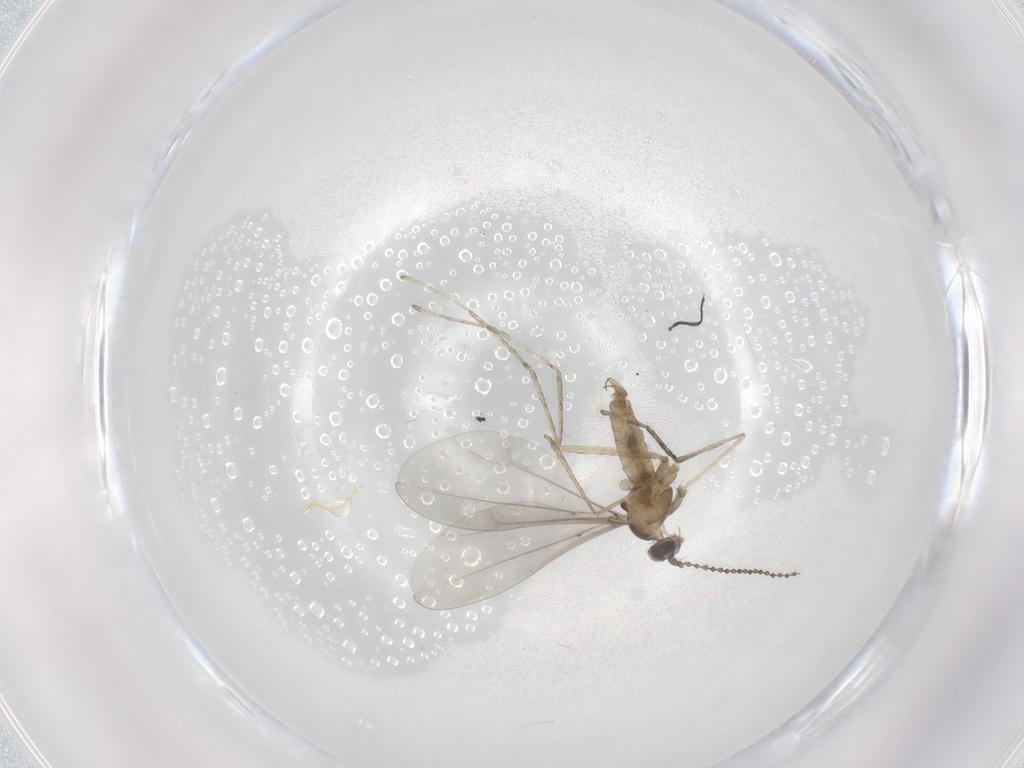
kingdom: Animalia
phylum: Arthropoda
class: Insecta
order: Diptera
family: Cecidomyiidae
